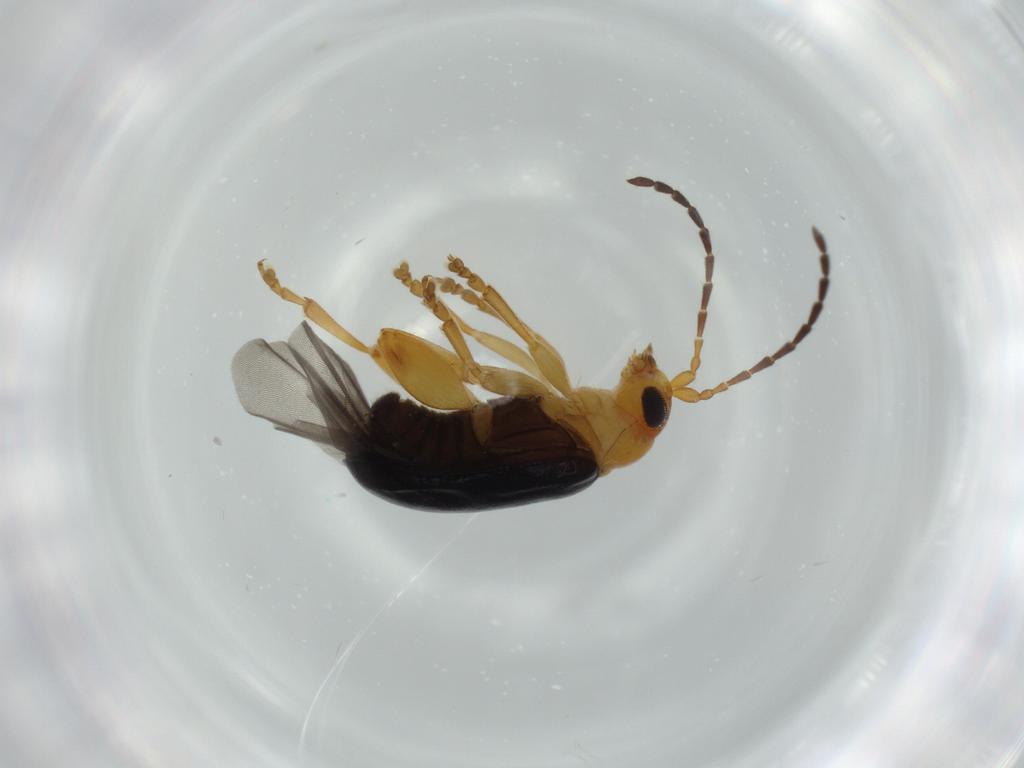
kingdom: Animalia
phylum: Arthropoda
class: Insecta
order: Coleoptera
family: Chrysomelidae
